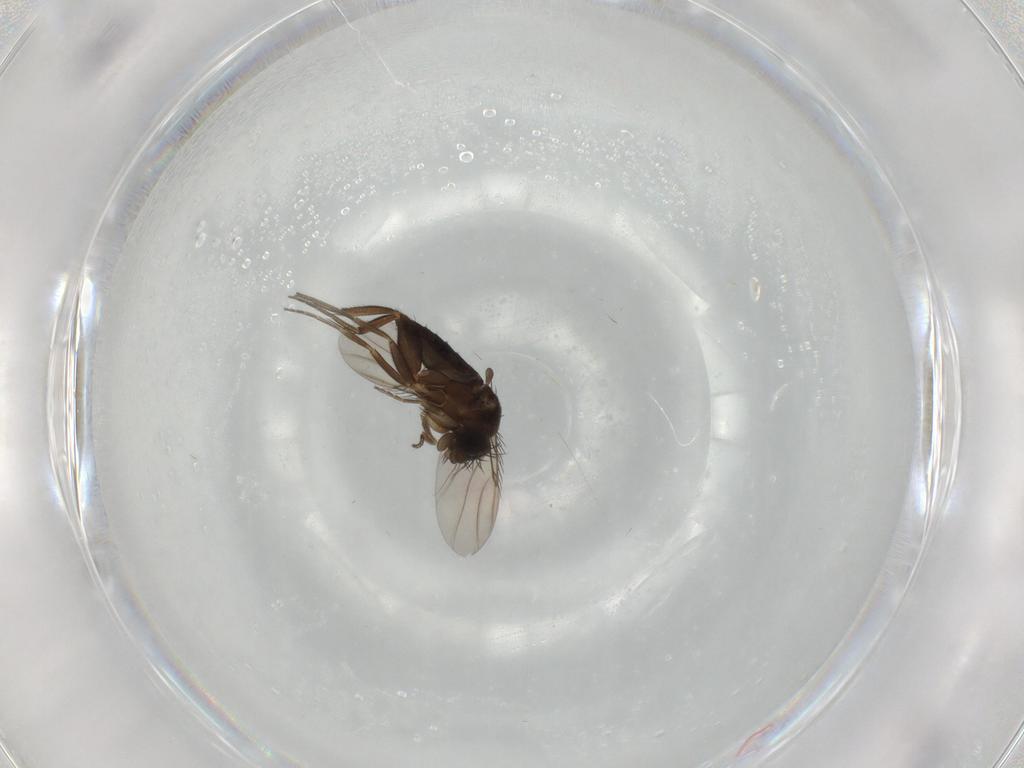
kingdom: Animalia
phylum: Arthropoda
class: Insecta
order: Diptera
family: Phoridae
